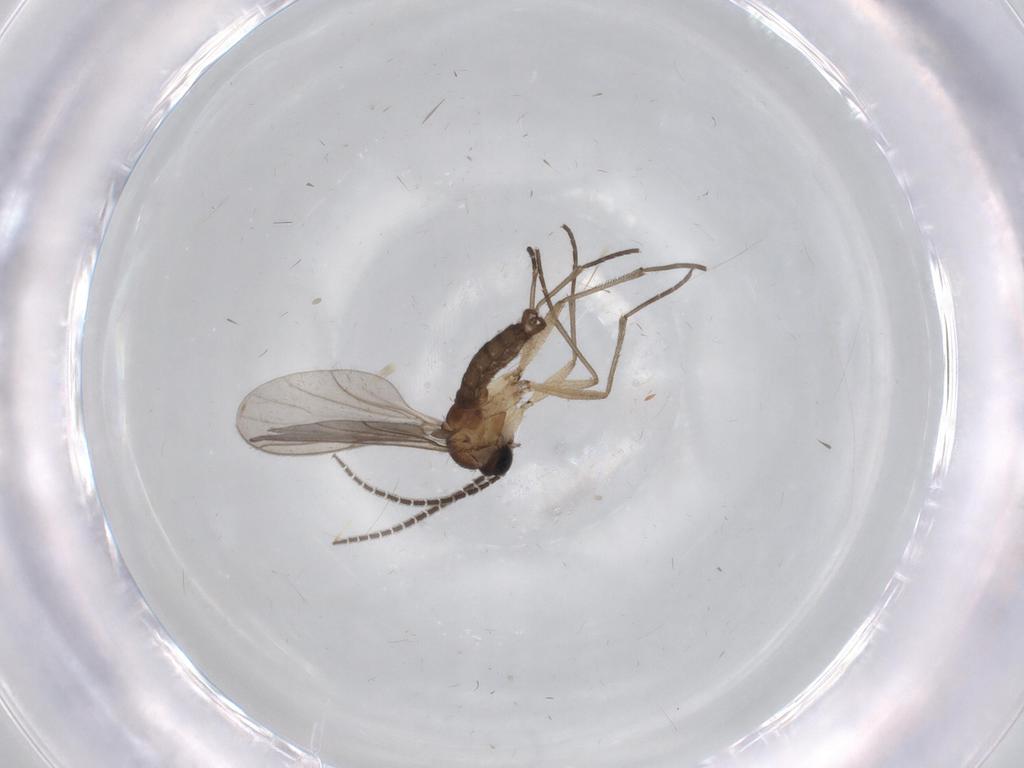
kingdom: Animalia
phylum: Arthropoda
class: Insecta
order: Diptera
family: Sciaridae
